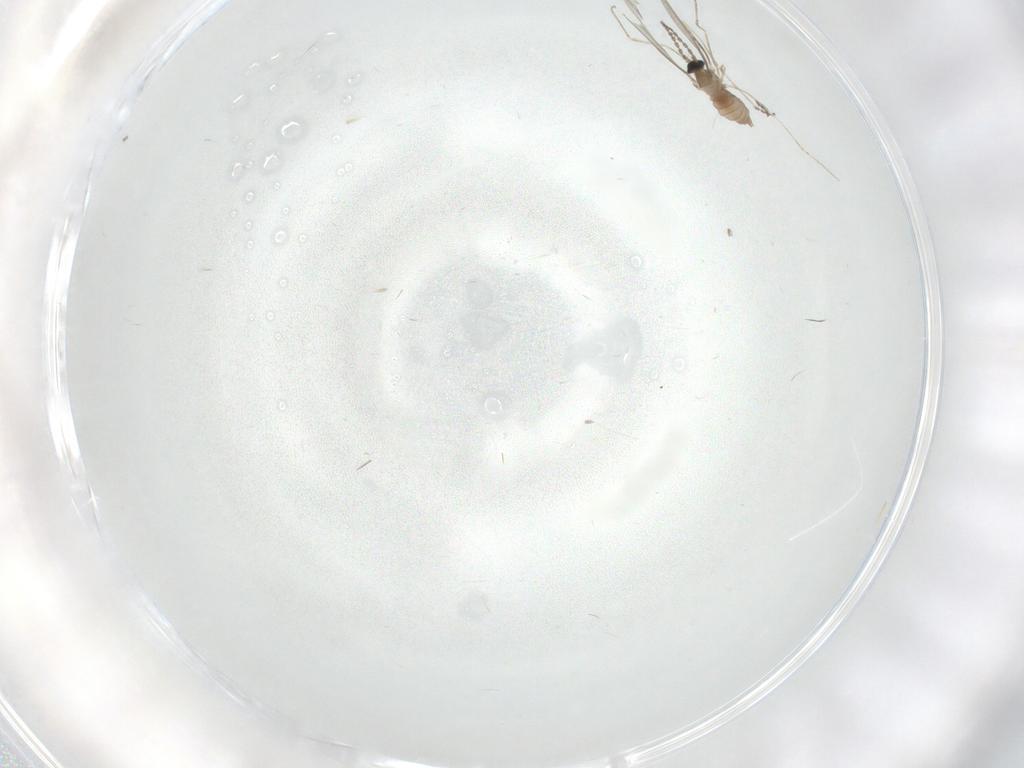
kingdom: Animalia
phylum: Arthropoda
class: Insecta
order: Diptera
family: Cecidomyiidae
